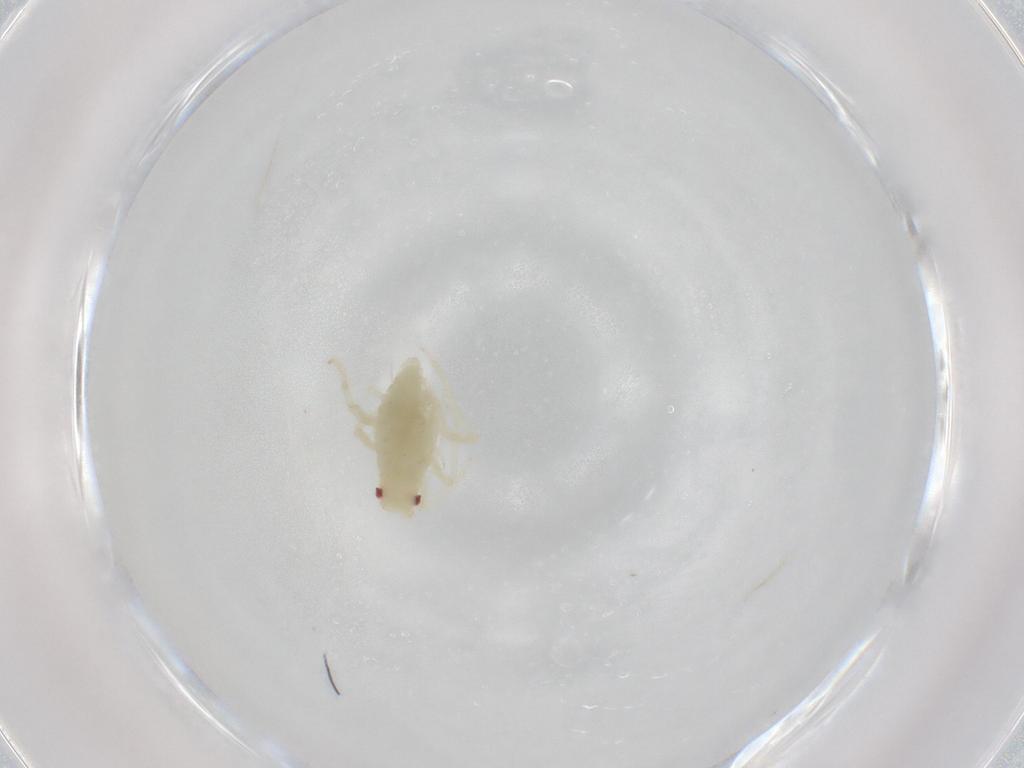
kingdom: Animalia
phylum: Arthropoda
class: Insecta
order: Hemiptera
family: Aphididae
